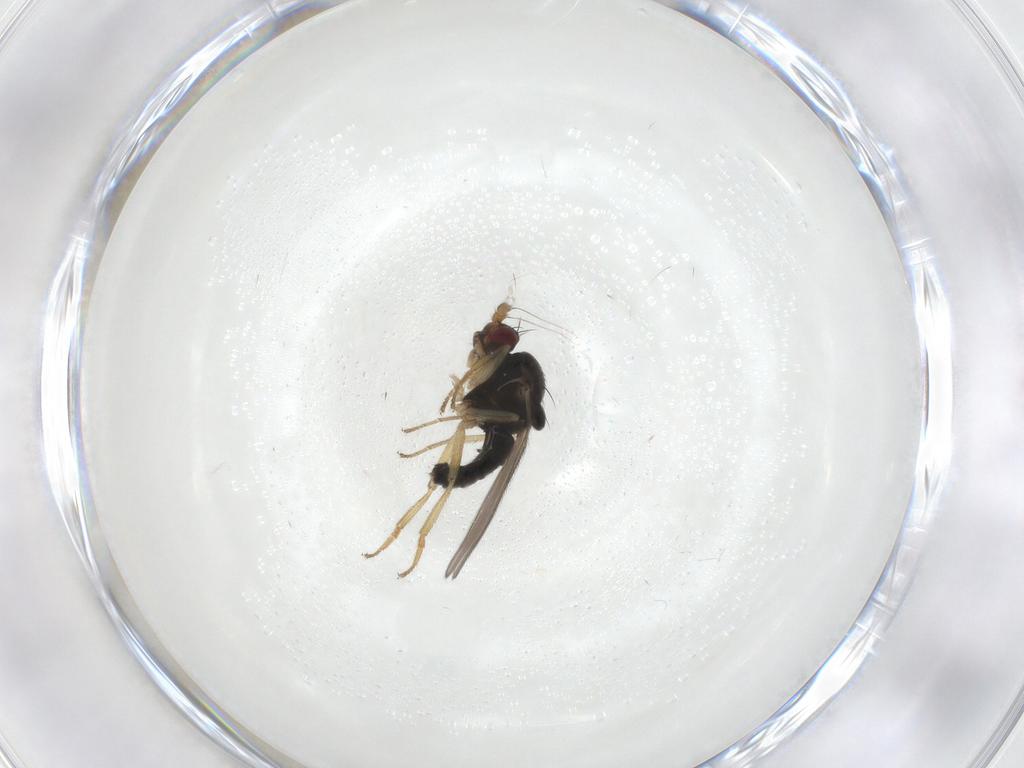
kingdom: Animalia
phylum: Arthropoda
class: Insecta
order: Diptera
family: Sphaeroceridae
